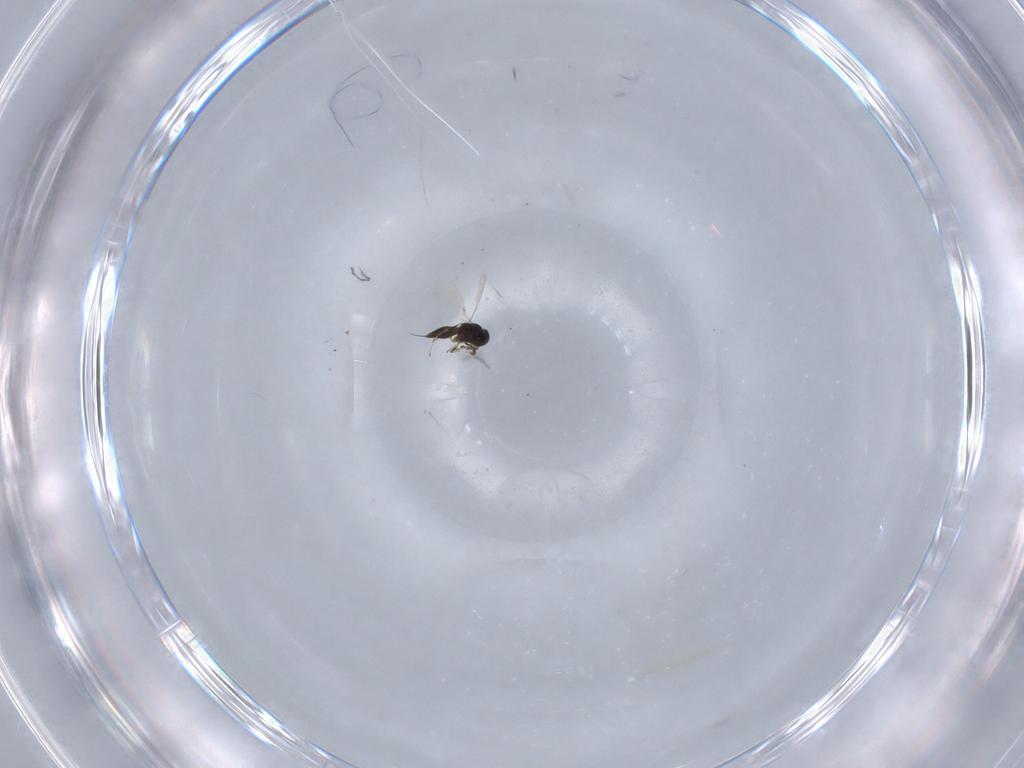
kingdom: Animalia
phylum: Arthropoda
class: Insecta
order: Hymenoptera
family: Platygastridae
